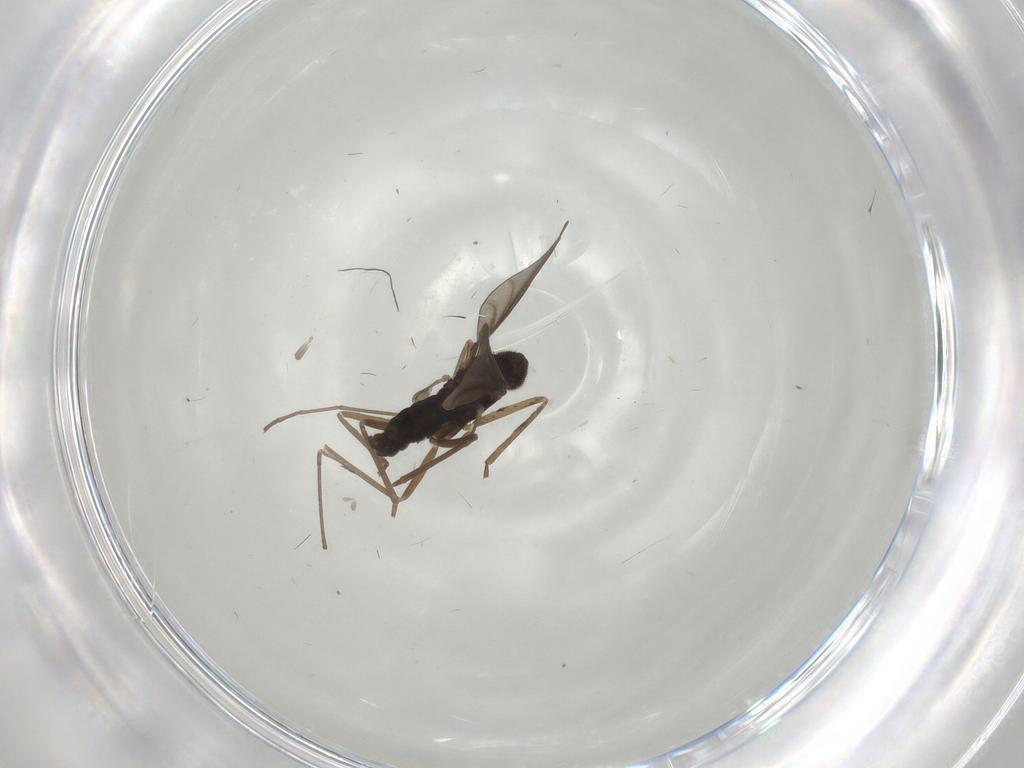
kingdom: Animalia
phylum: Arthropoda
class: Insecta
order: Diptera
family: Cecidomyiidae
